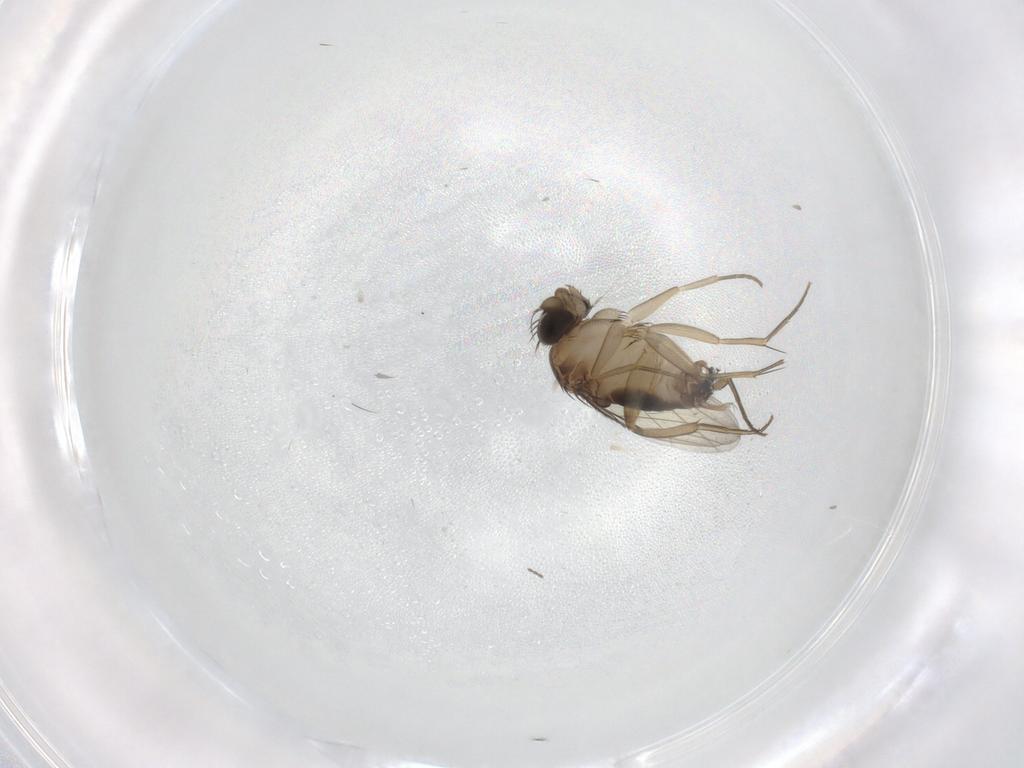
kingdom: Animalia
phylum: Arthropoda
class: Insecta
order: Diptera
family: Phoridae
